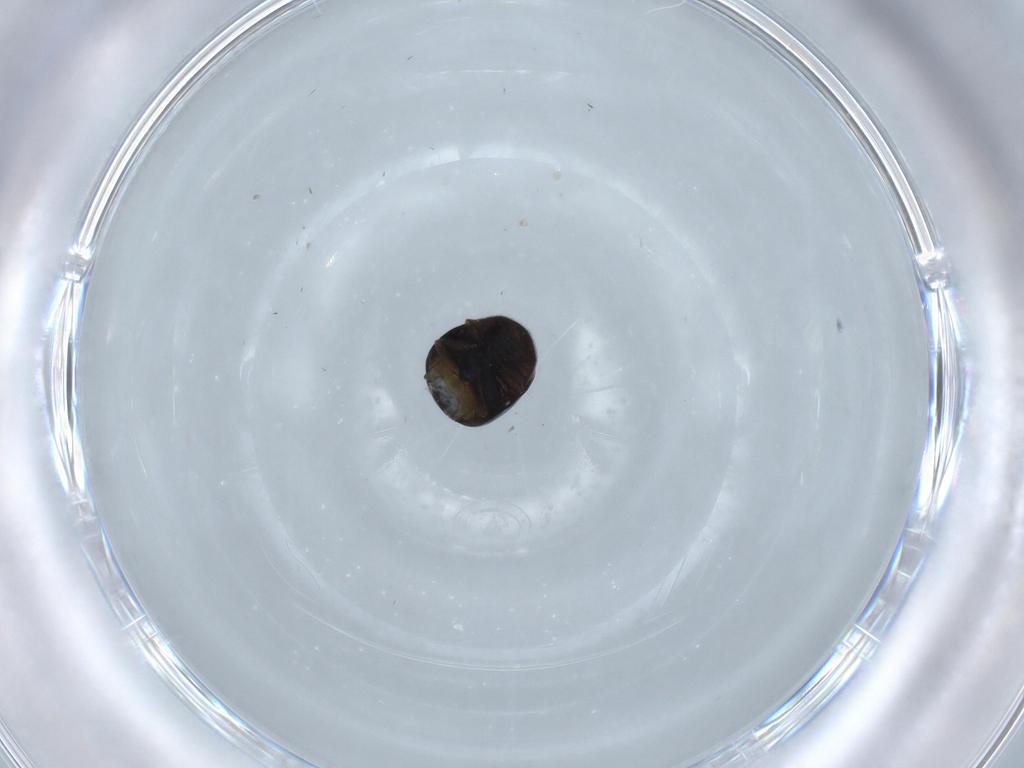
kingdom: Animalia
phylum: Arthropoda
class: Insecta
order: Coleoptera
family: Cybocephalidae
